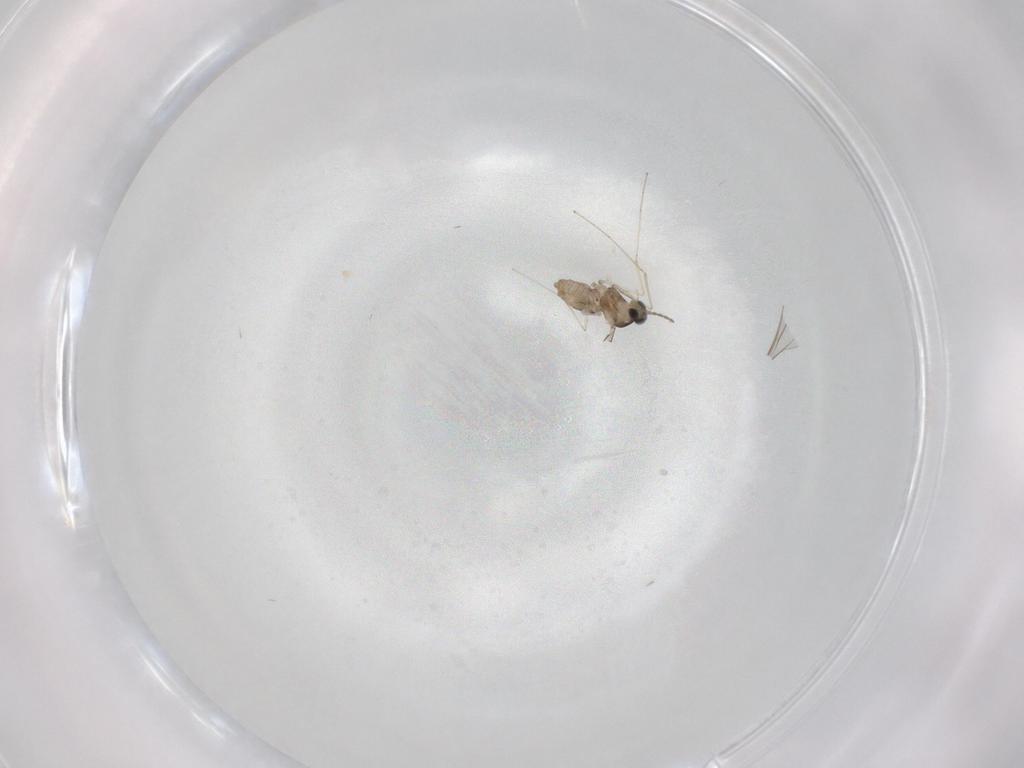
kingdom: Animalia
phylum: Arthropoda
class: Insecta
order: Diptera
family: Cecidomyiidae
